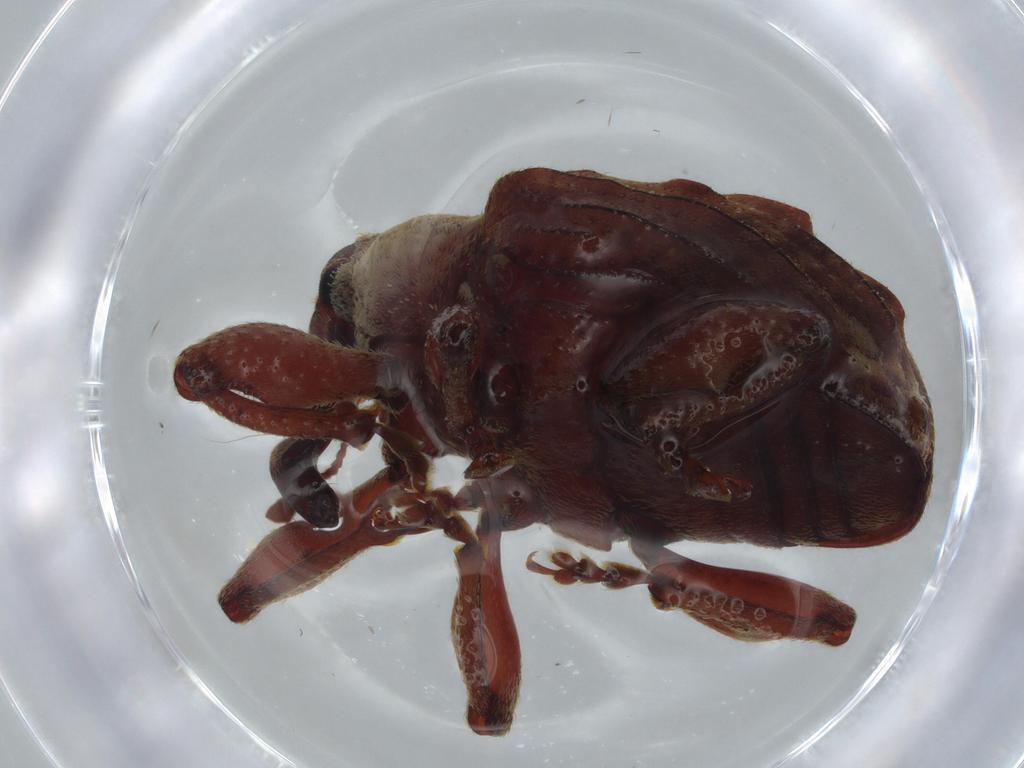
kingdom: Animalia
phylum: Arthropoda
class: Insecta
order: Coleoptera
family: Curculionidae
